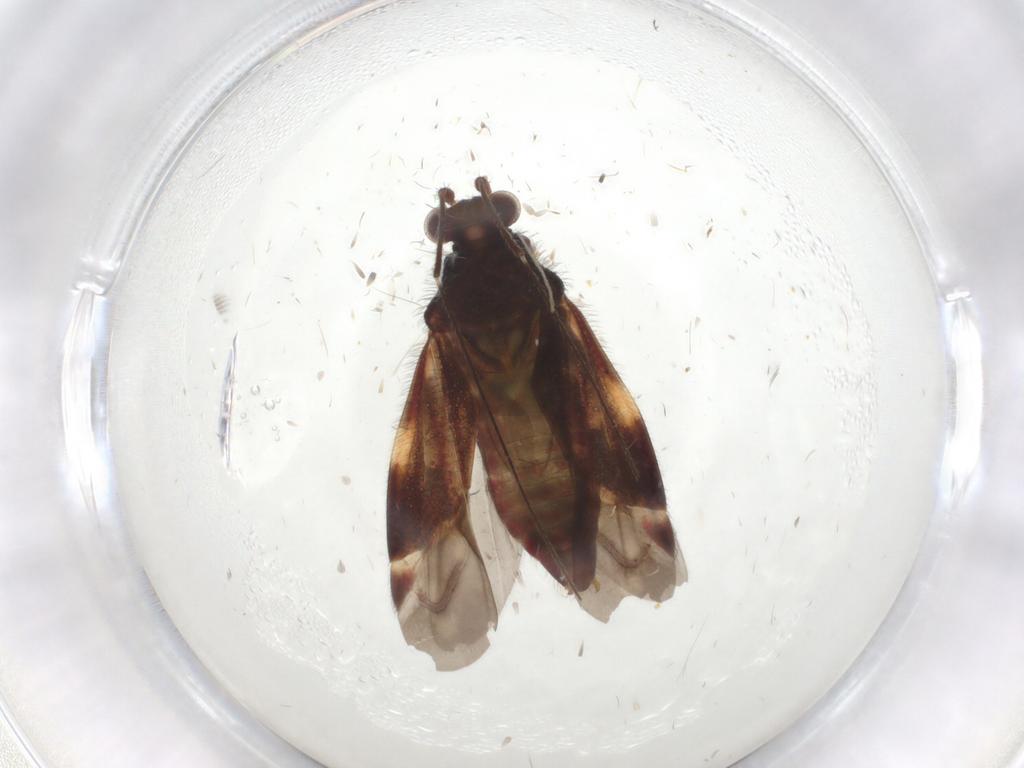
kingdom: Animalia
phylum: Arthropoda
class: Insecta
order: Hemiptera
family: Miridae
